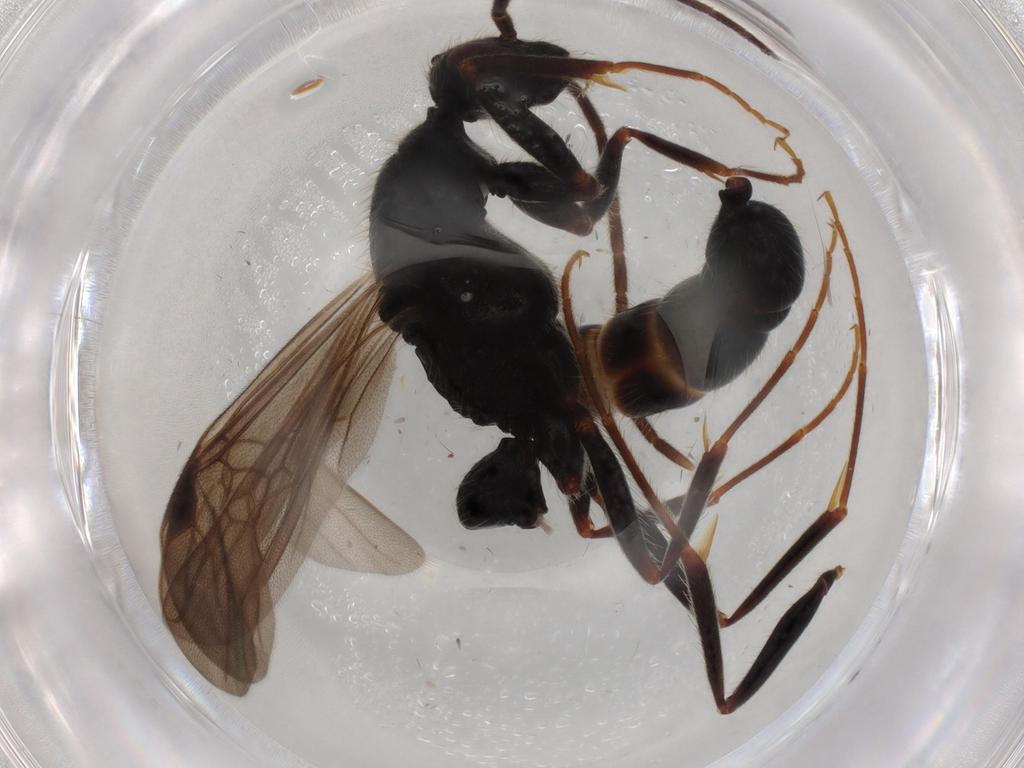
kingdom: Animalia
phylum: Arthropoda
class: Insecta
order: Hymenoptera
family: Formicidae
